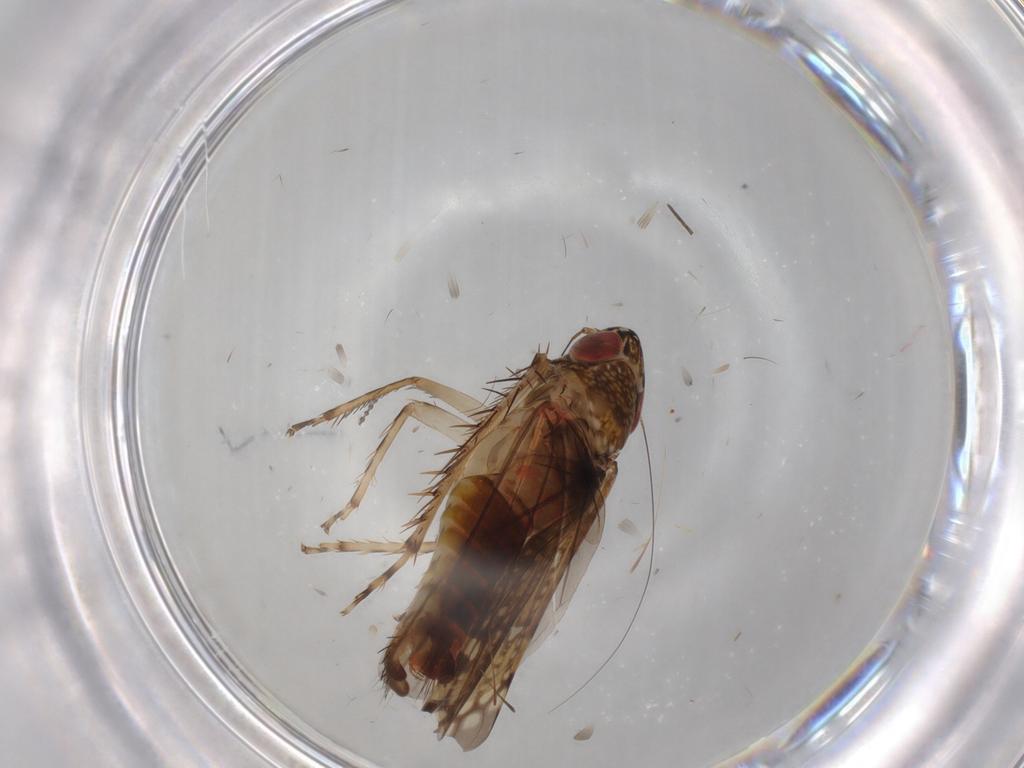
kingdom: Animalia
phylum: Arthropoda
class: Insecta
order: Hemiptera
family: Cicadellidae
